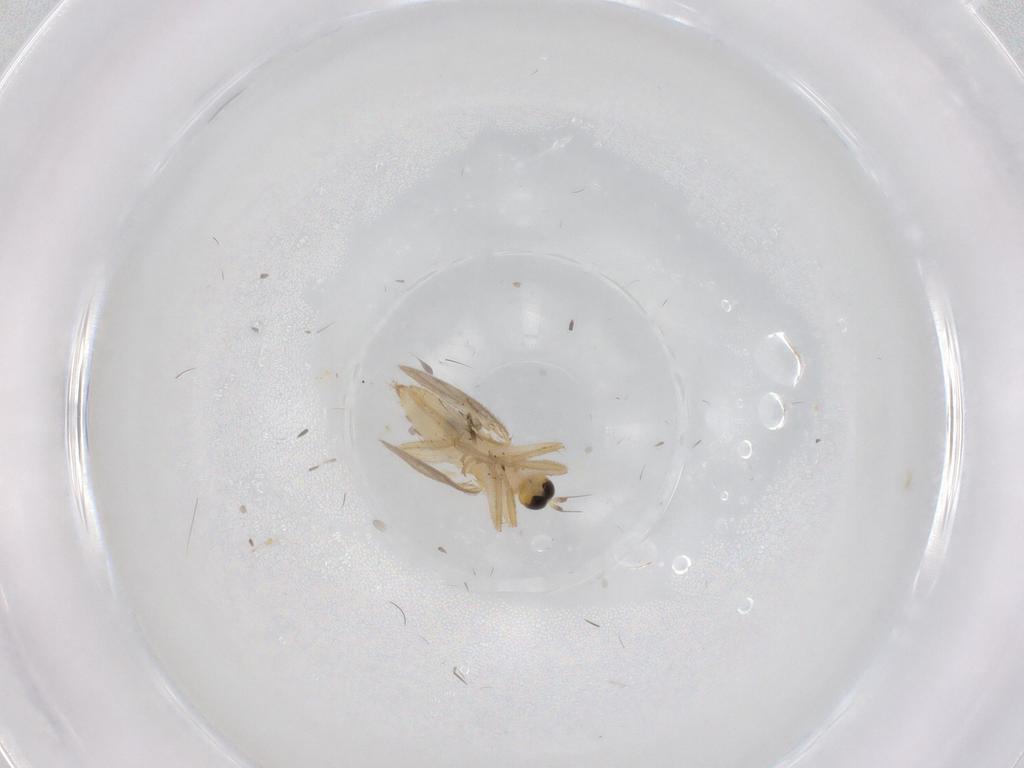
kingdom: Animalia
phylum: Arthropoda
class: Insecta
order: Diptera
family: Hybotidae
